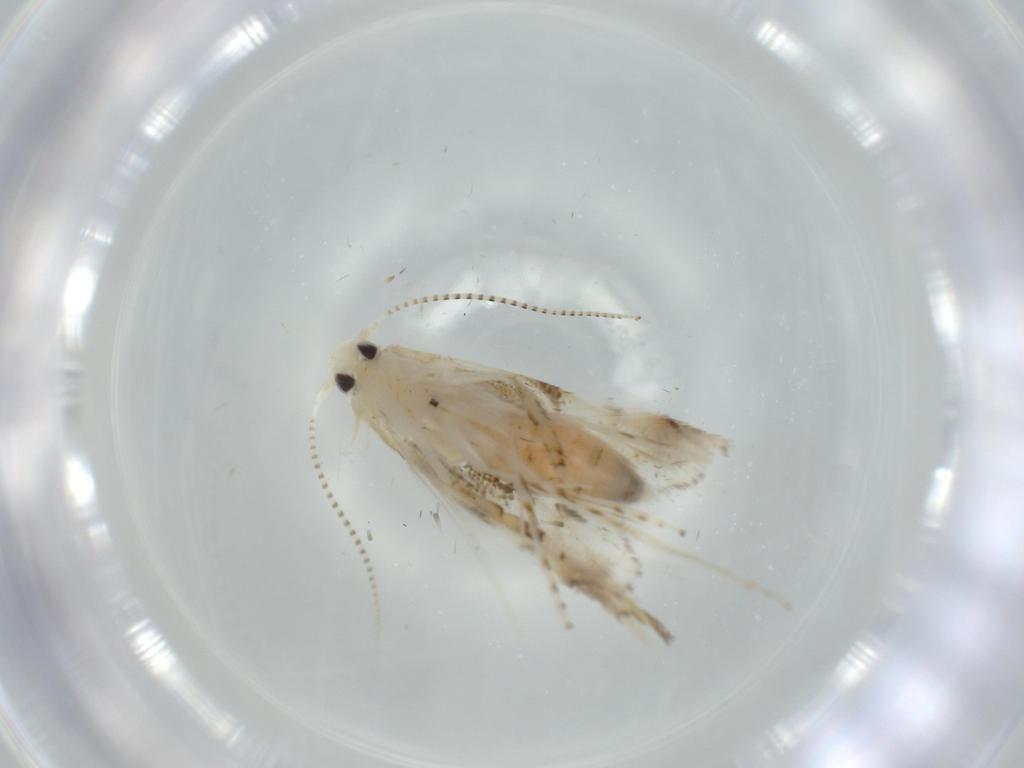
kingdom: Animalia
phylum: Arthropoda
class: Insecta
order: Lepidoptera
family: Gracillariidae
